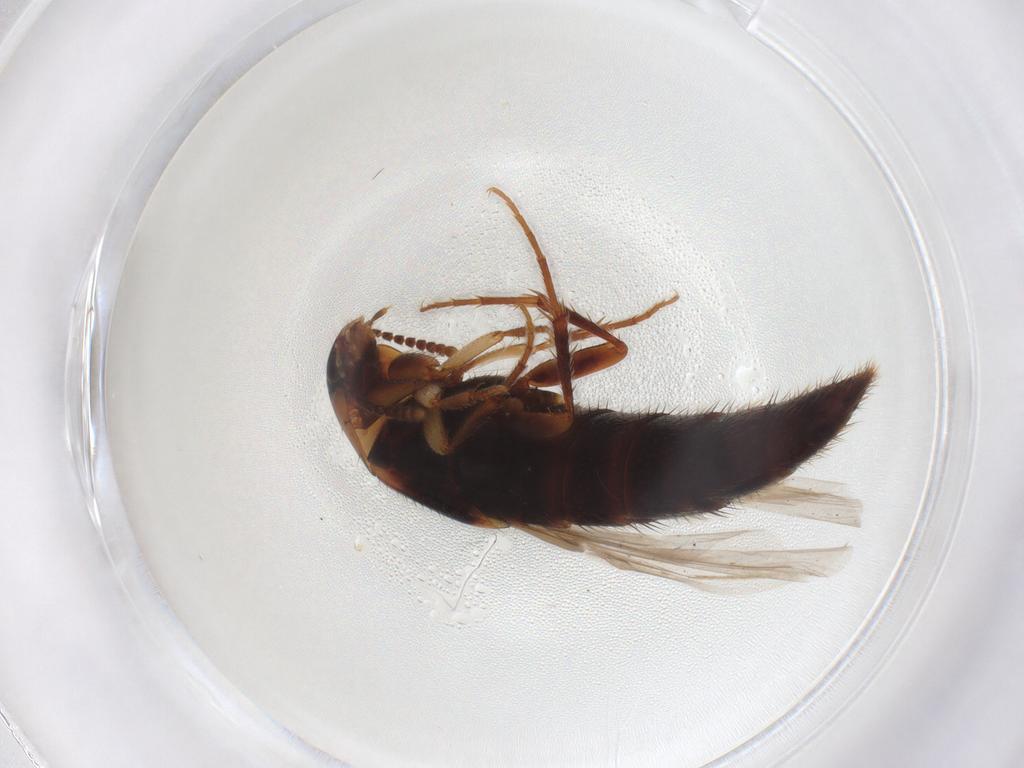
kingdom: Animalia
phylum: Arthropoda
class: Insecta
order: Coleoptera
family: Staphylinidae
